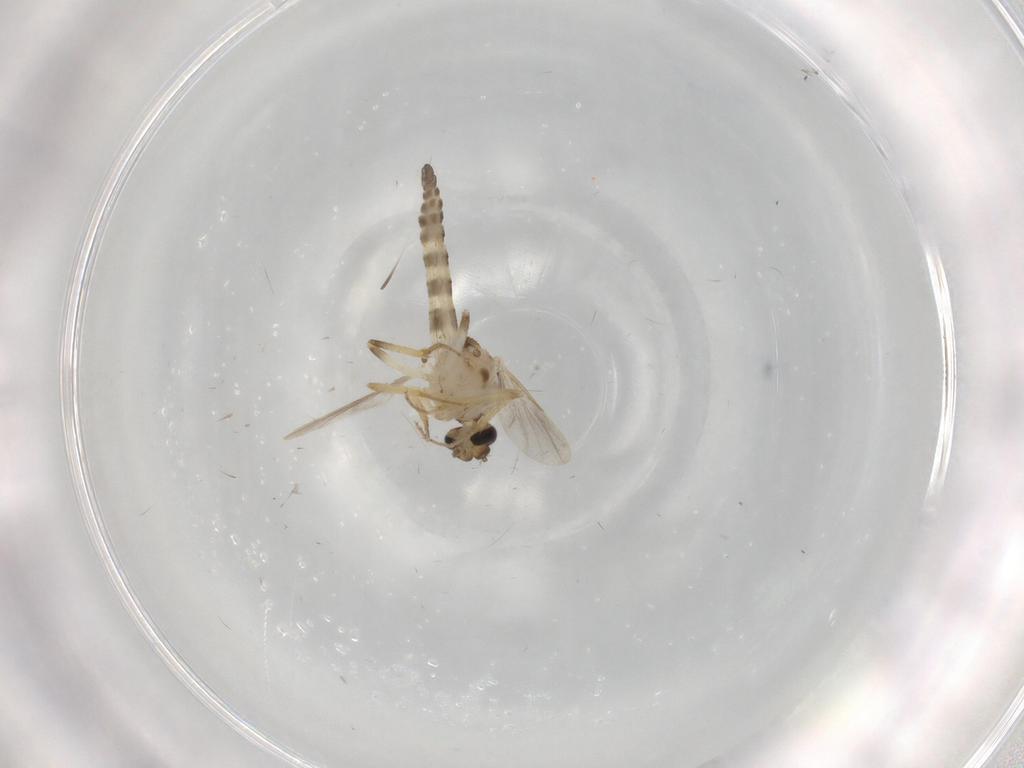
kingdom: Animalia
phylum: Arthropoda
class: Insecta
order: Diptera
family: Ceratopogonidae
